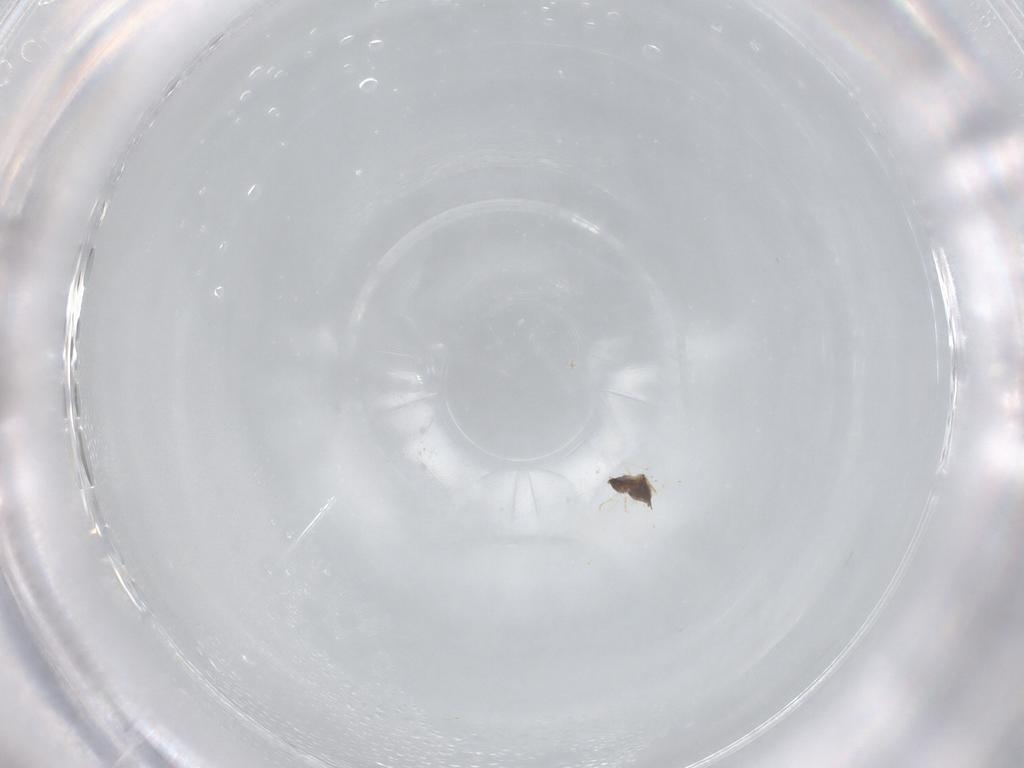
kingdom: Animalia
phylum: Arthropoda
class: Insecta
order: Hymenoptera
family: Trichogrammatidae
